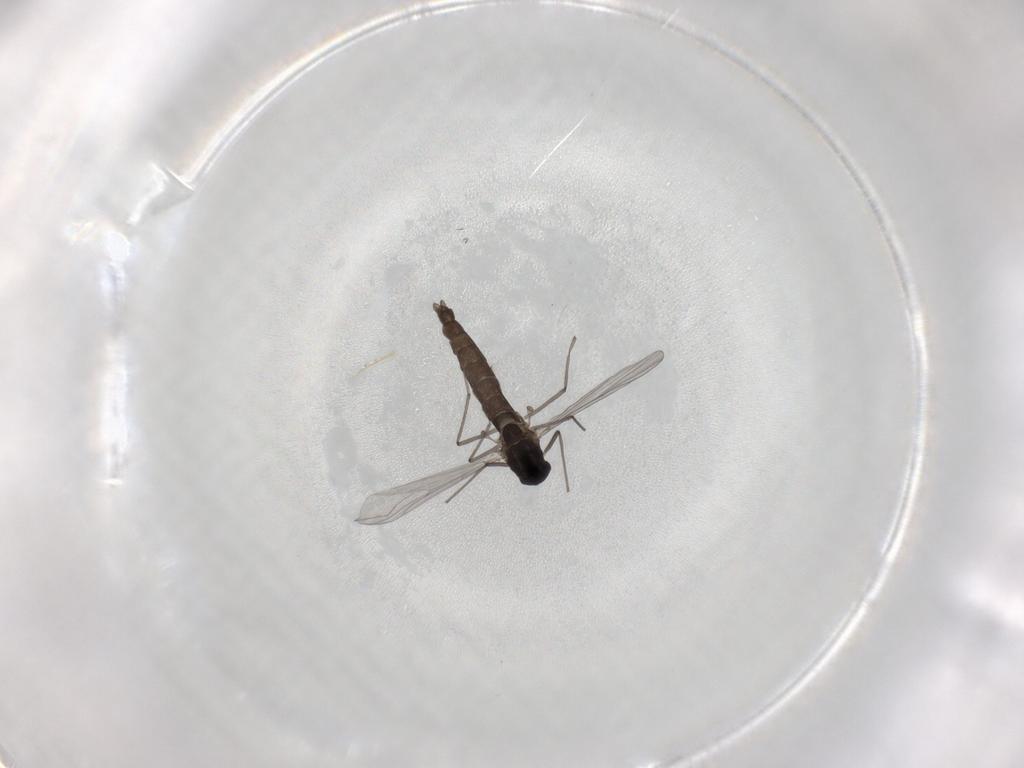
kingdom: Animalia
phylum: Arthropoda
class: Insecta
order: Diptera
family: Chironomidae
